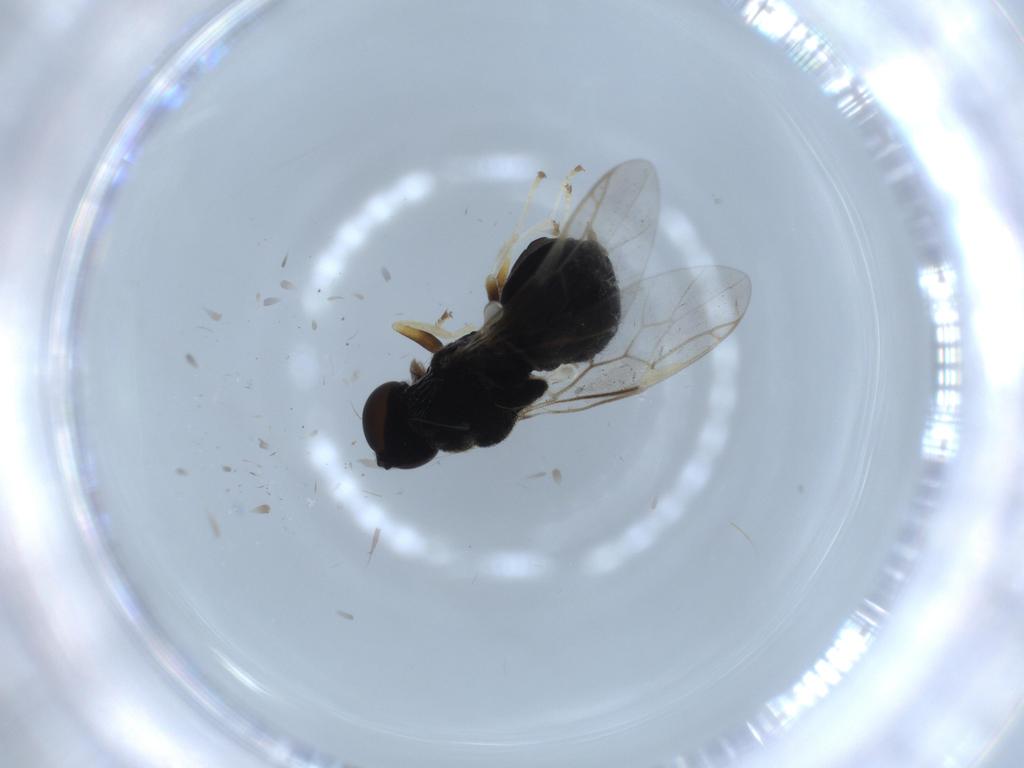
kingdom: Animalia
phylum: Arthropoda
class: Insecta
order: Diptera
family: Stratiomyidae
